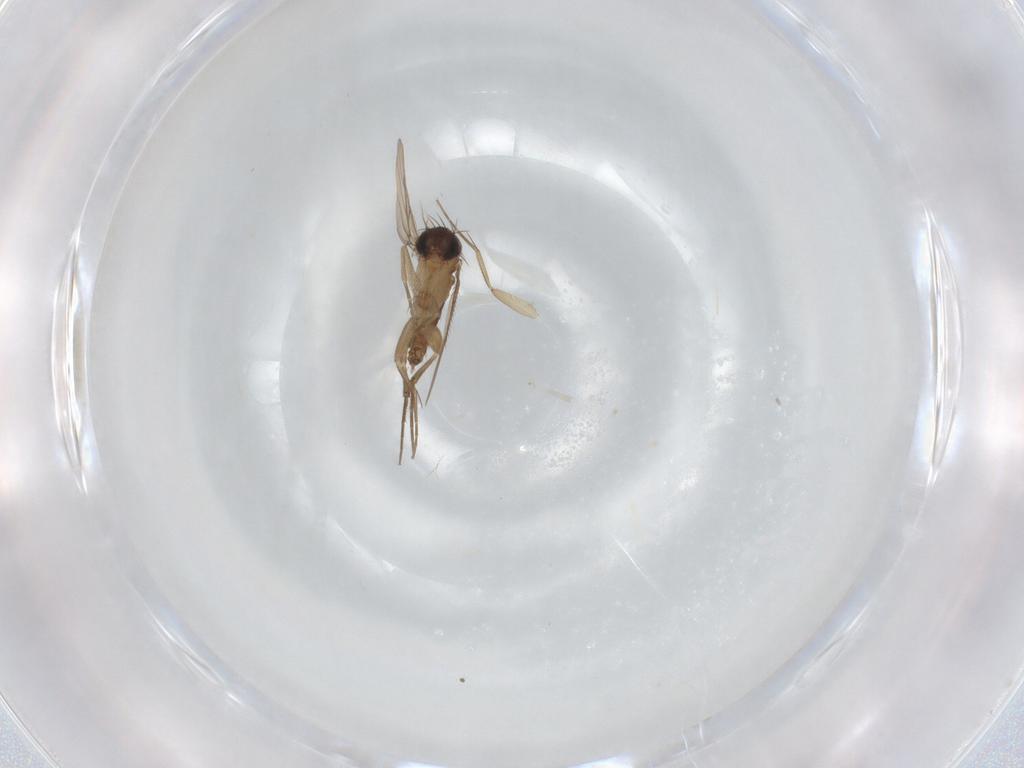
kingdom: Animalia
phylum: Arthropoda
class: Insecta
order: Diptera
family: Phoridae
